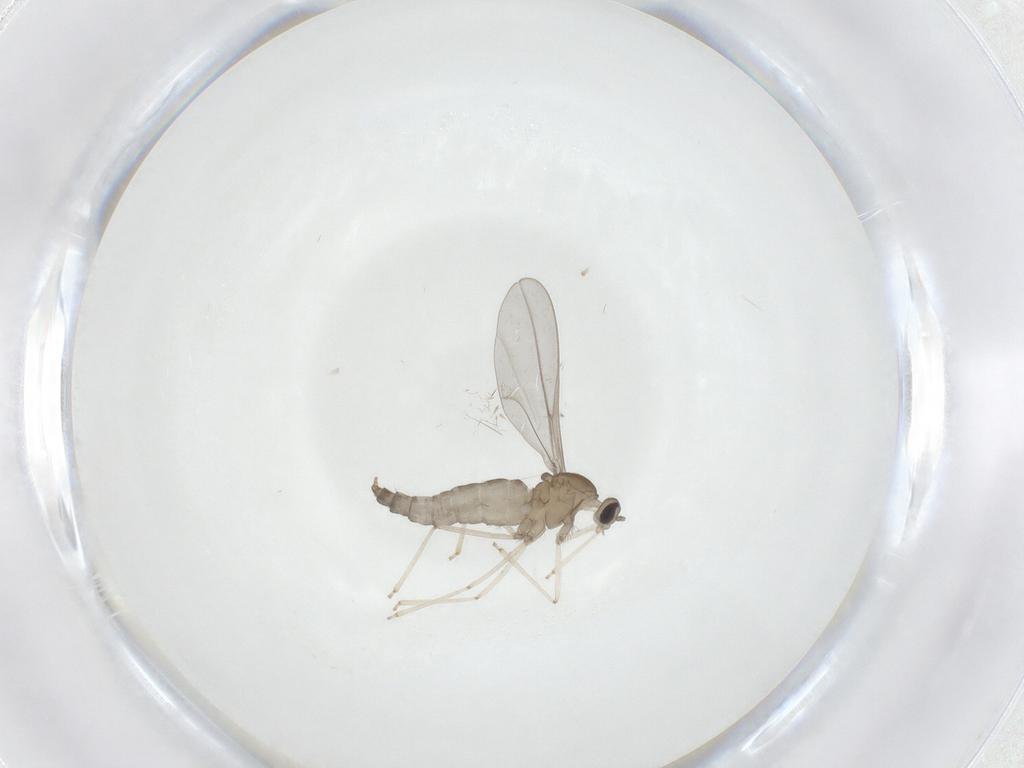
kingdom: Animalia
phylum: Arthropoda
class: Insecta
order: Diptera
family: Cecidomyiidae
